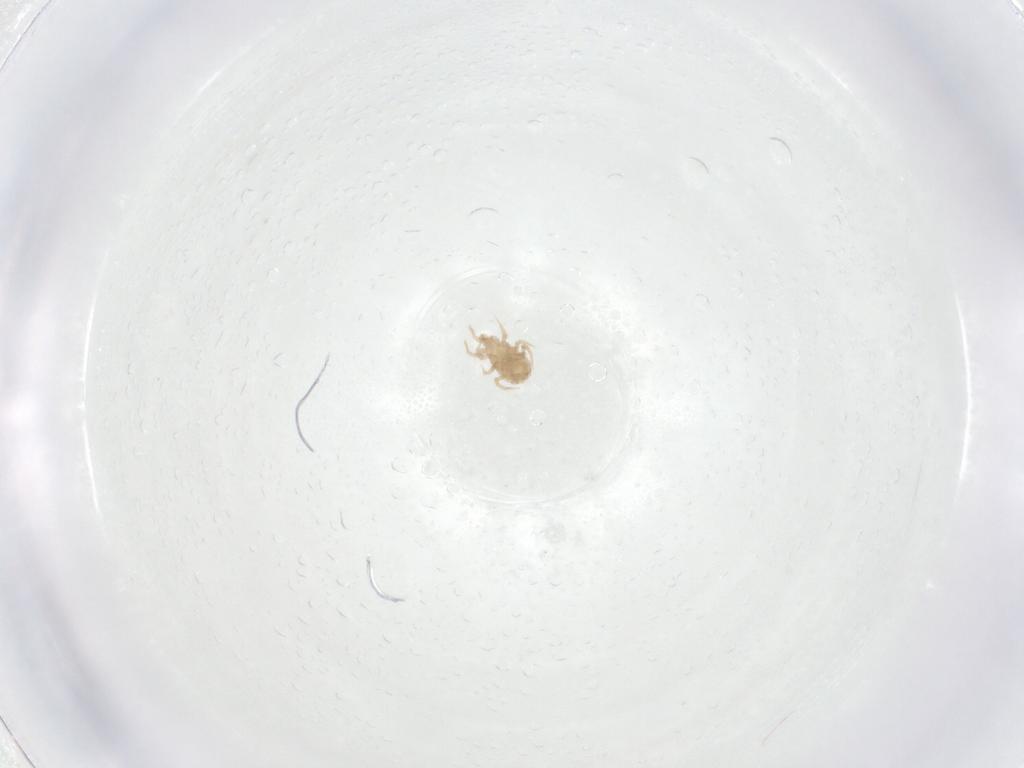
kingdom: Animalia
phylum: Arthropoda
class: Arachnida
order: Mesostigmata
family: Blattisociidae
